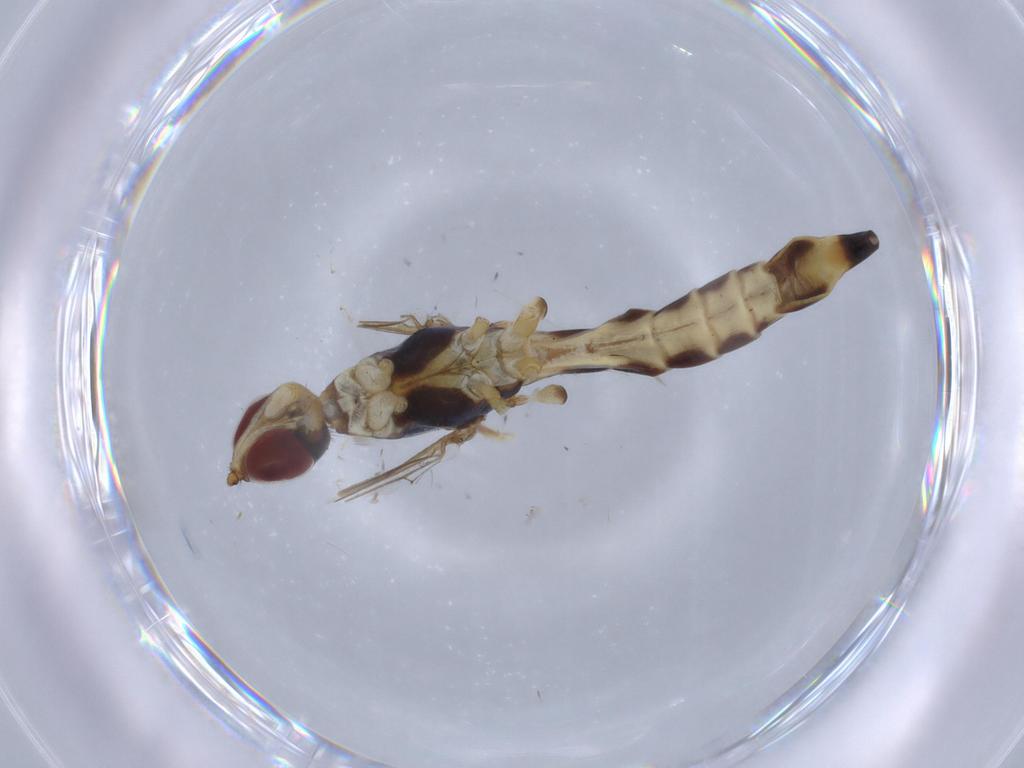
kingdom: Animalia
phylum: Arthropoda
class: Insecta
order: Diptera
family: Micropezidae
